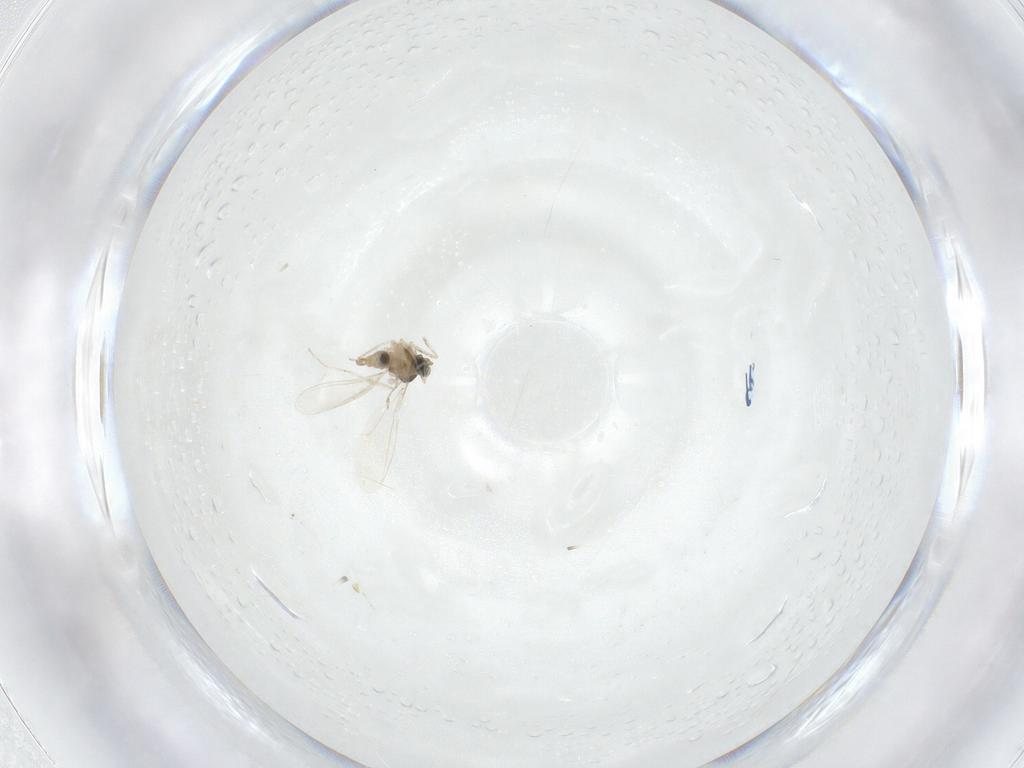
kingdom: Animalia
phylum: Arthropoda
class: Insecta
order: Diptera
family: Cecidomyiidae
